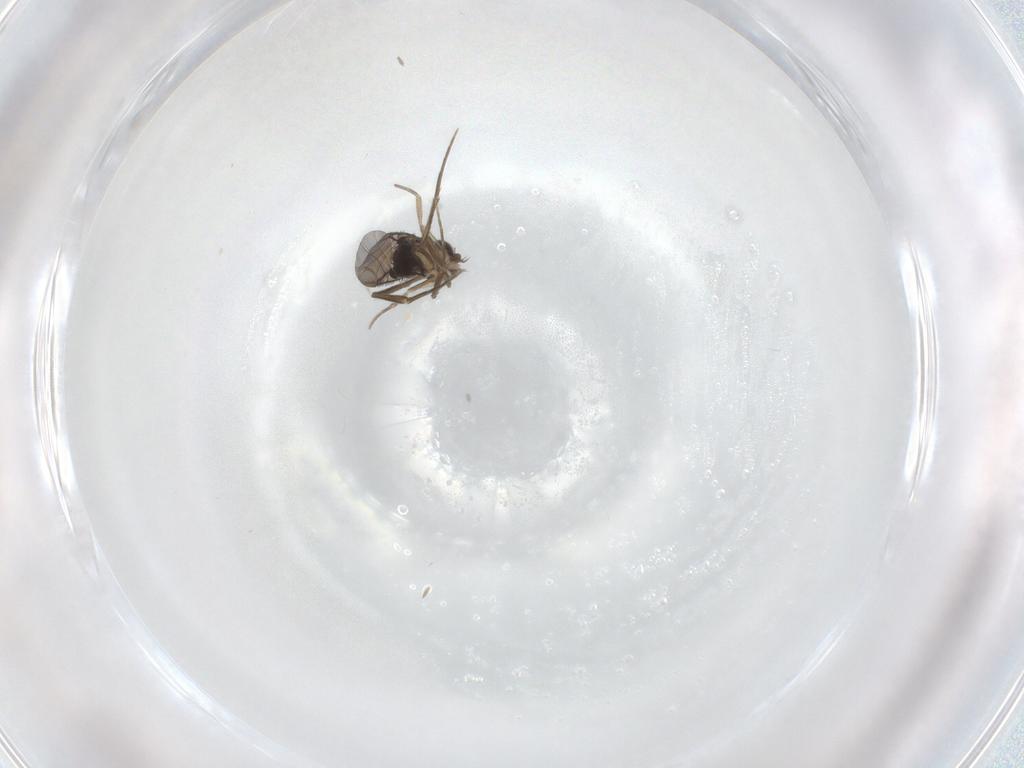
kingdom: Animalia
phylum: Arthropoda
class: Insecta
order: Diptera
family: Phoridae
